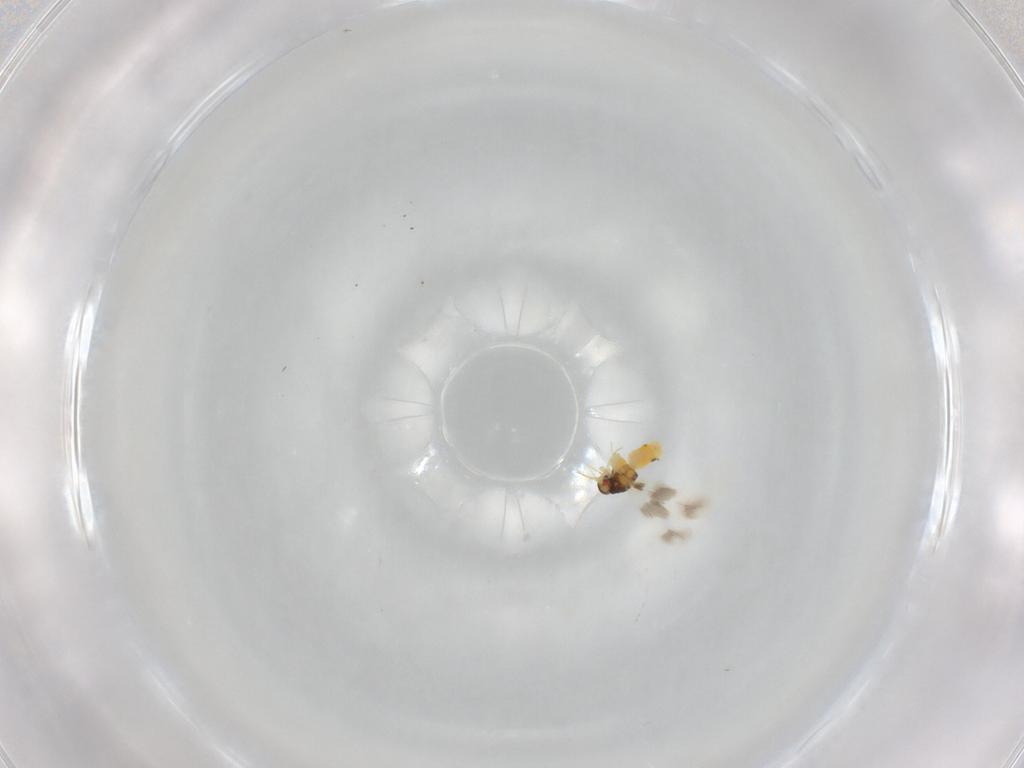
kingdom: Animalia
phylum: Arthropoda
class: Insecta
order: Hemiptera
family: Aleyrodidae
